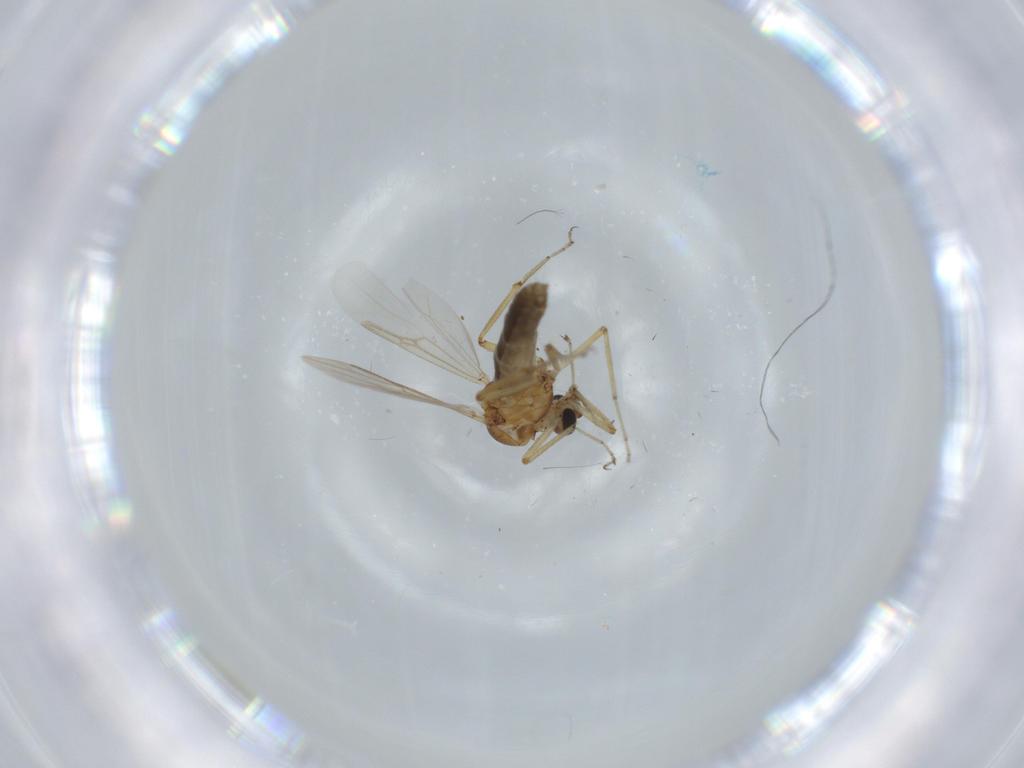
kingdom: Animalia
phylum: Arthropoda
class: Insecta
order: Diptera
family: Ceratopogonidae
